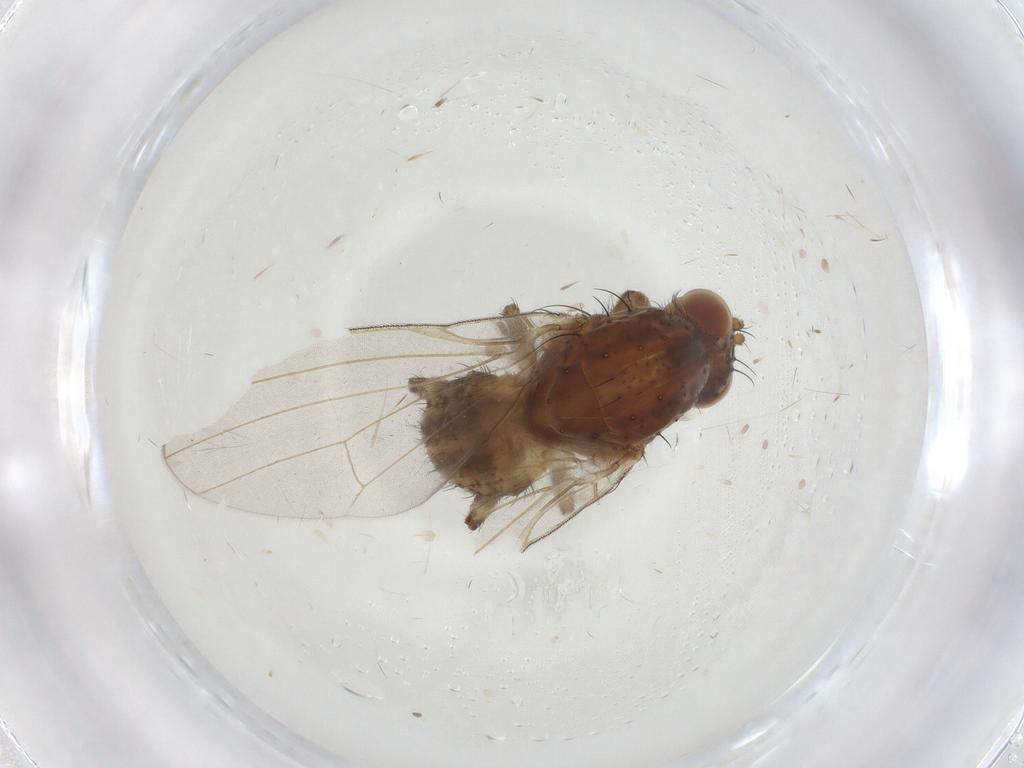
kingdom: Animalia
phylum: Arthropoda
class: Insecta
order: Diptera
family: Lauxaniidae
